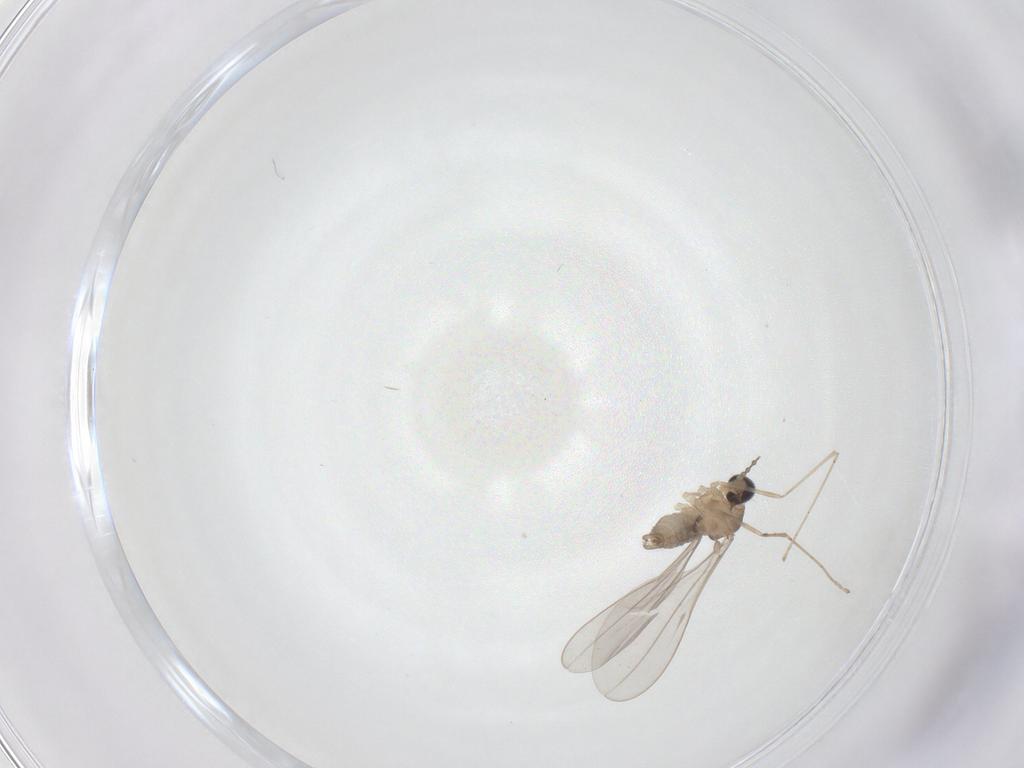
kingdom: Animalia
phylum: Arthropoda
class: Insecta
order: Diptera
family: Cecidomyiidae
